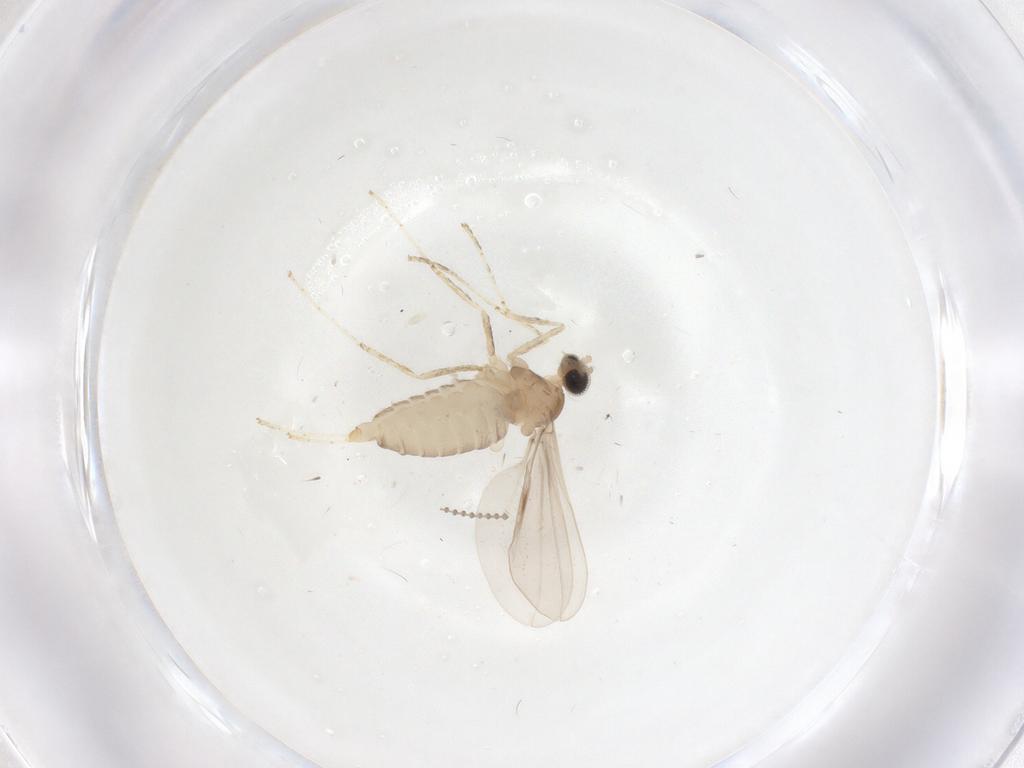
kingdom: Animalia
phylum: Arthropoda
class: Insecta
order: Diptera
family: Cecidomyiidae
